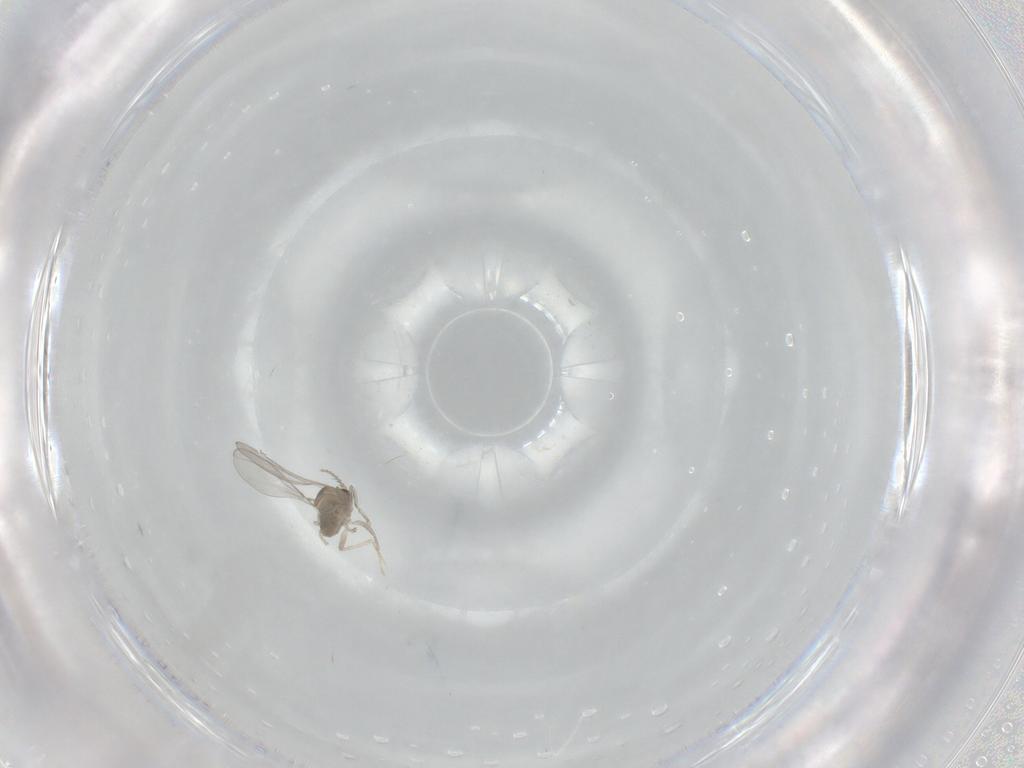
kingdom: Animalia
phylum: Arthropoda
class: Insecta
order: Diptera
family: Cecidomyiidae
